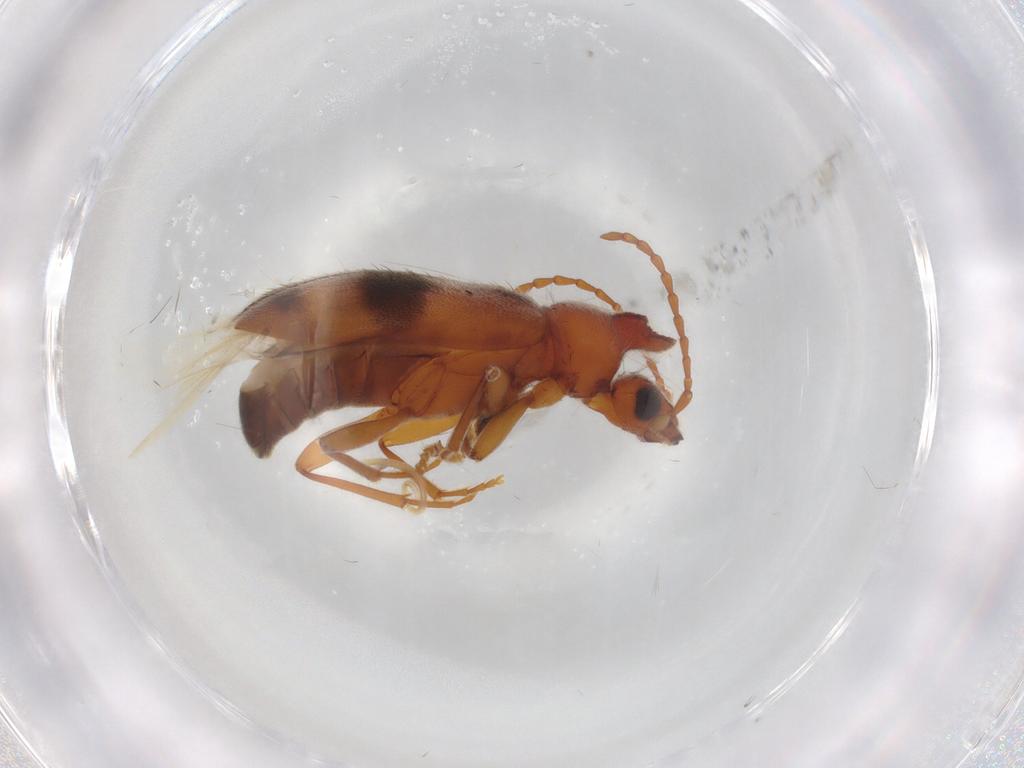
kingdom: Animalia
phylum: Arthropoda
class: Insecta
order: Coleoptera
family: Anthicidae
